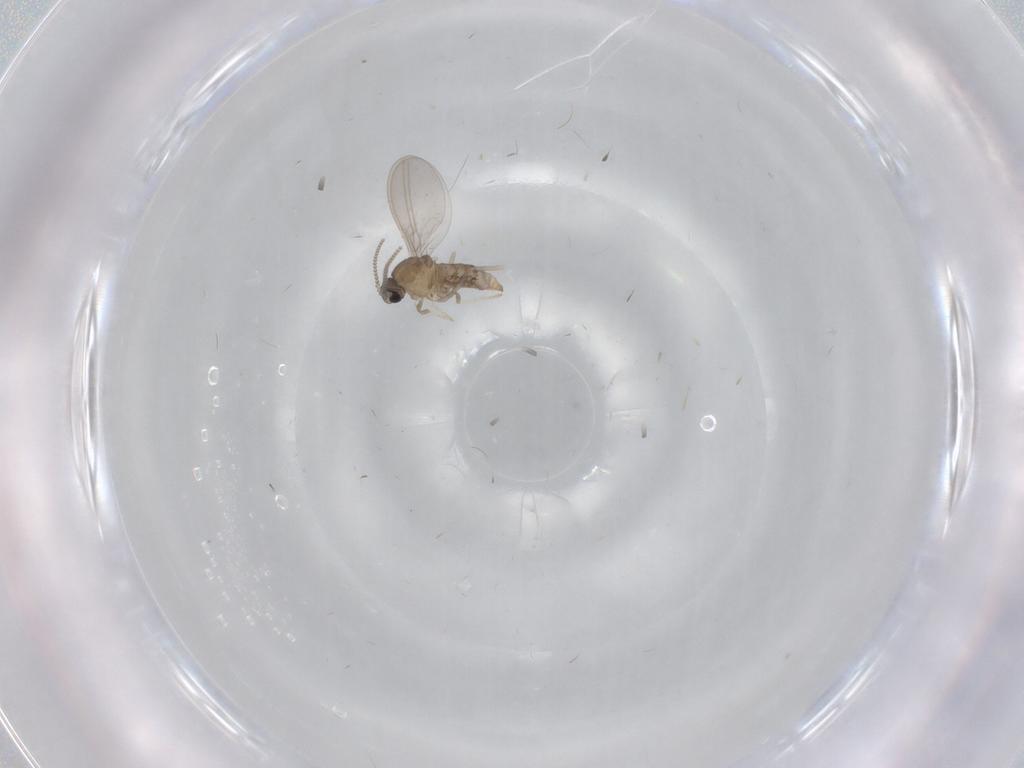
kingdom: Animalia
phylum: Arthropoda
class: Insecta
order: Diptera
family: Cecidomyiidae
